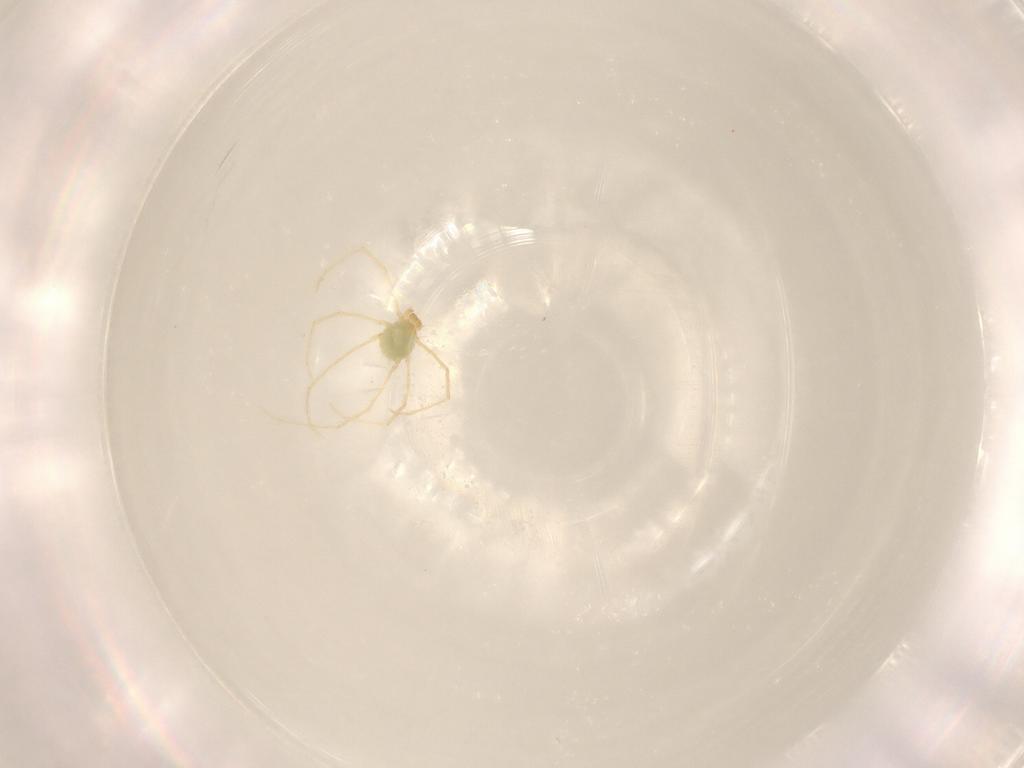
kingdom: Animalia
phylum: Arthropoda
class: Arachnida
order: Trombidiformes
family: Erythraeidae
